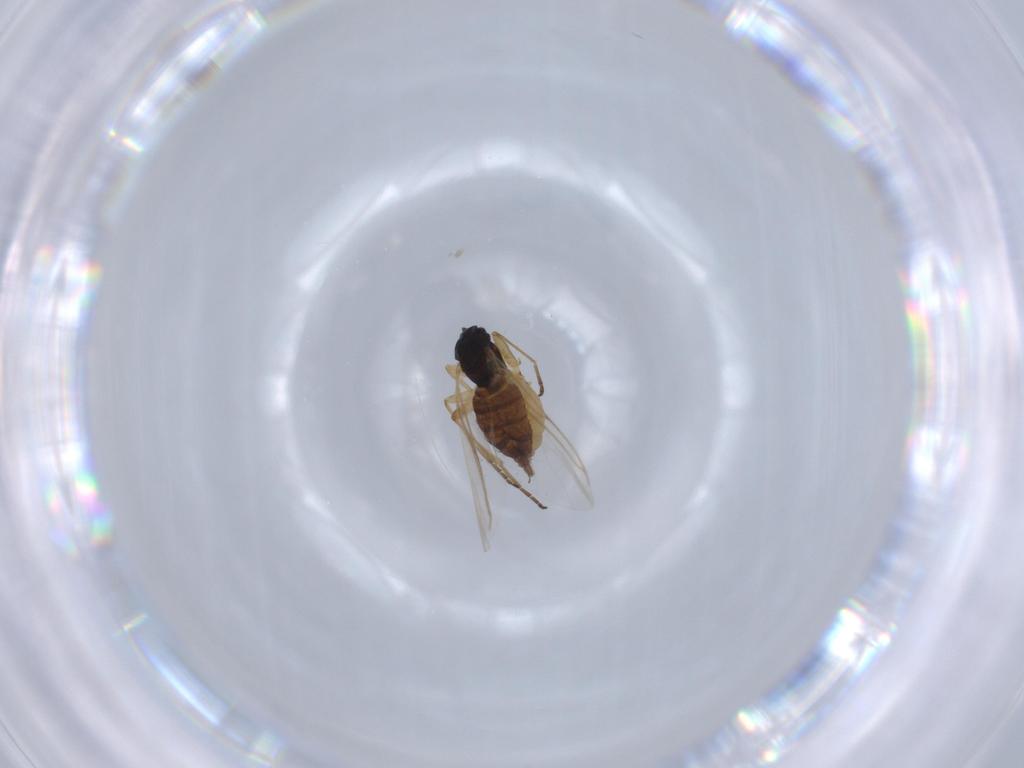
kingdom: Animalia
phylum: Arthropoda
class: Insecta
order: Diptera
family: Sciaridae
